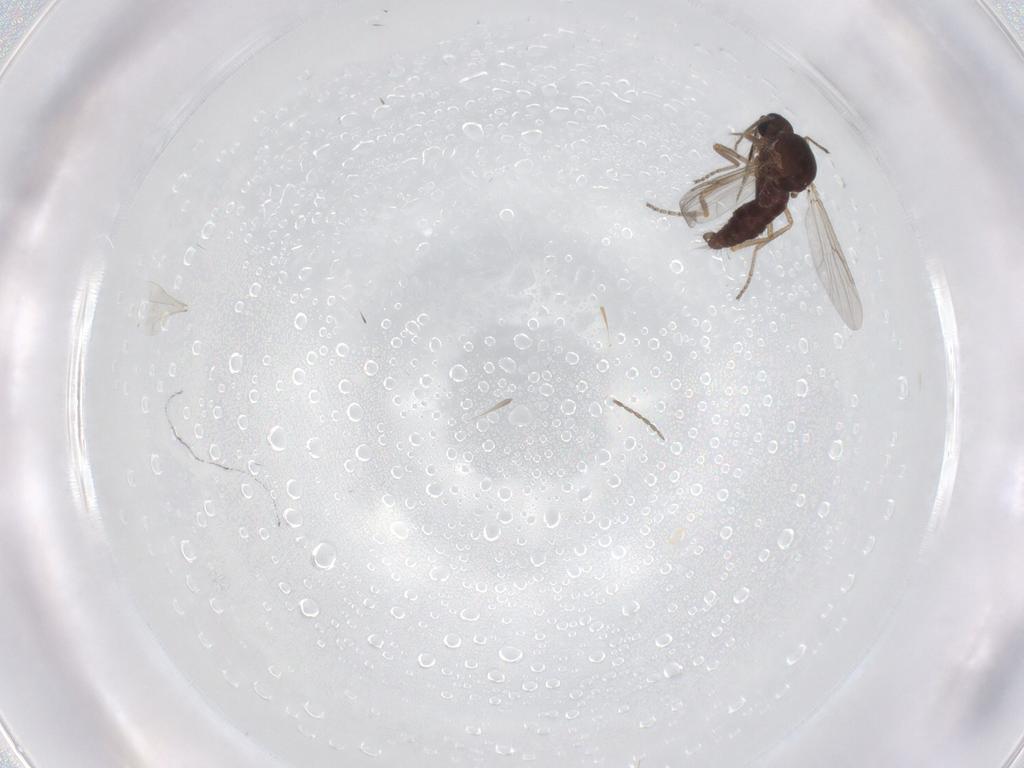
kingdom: Animalia
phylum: Arthropoda
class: Insecta
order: Diptera
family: Ceratopogonidae
